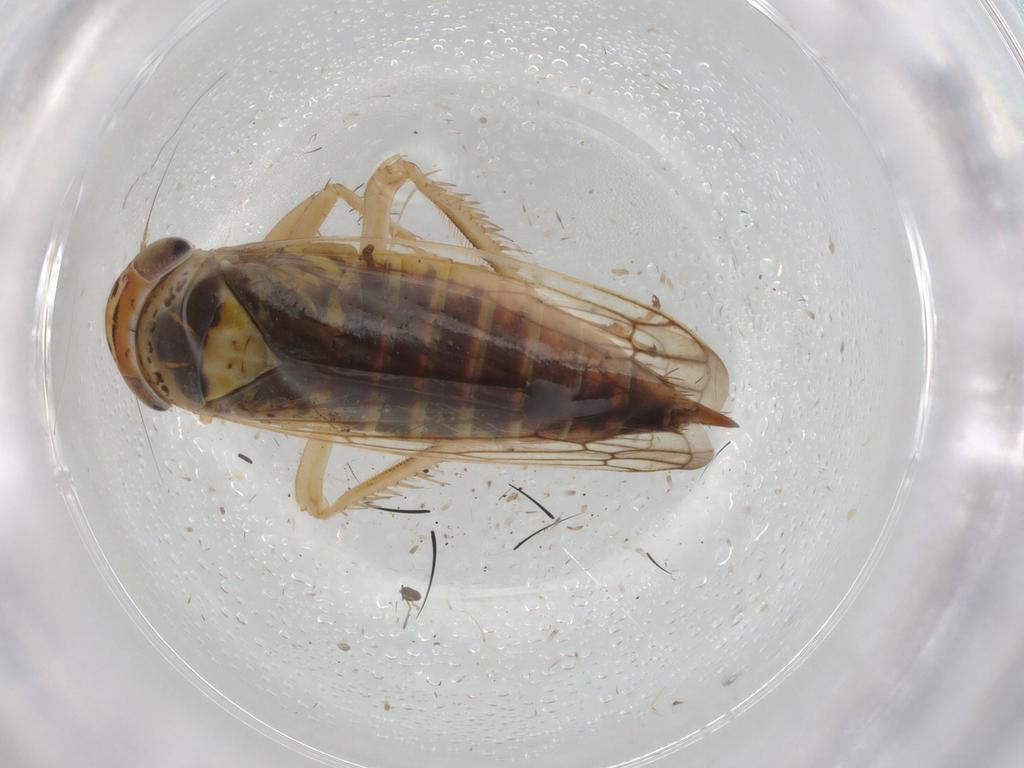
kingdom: Animalia
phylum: Arthropoda
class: Insecta
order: Hemiptera
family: Cicadellidae
